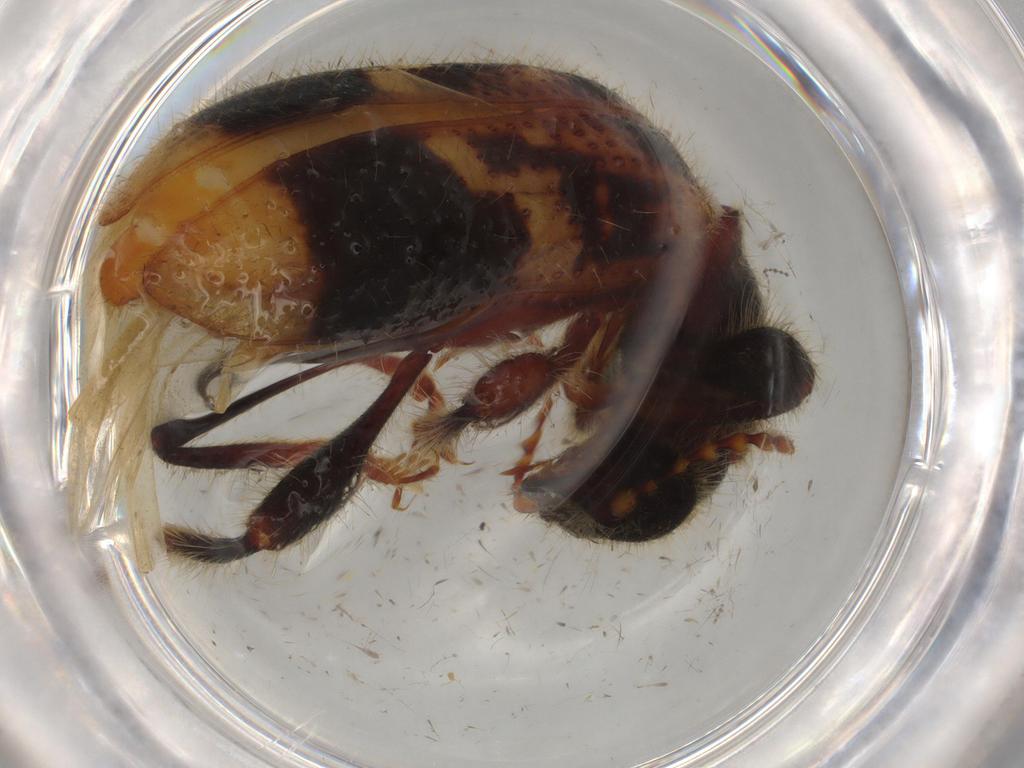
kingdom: Animalia
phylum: Arthropoda
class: Insecta
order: Coleoptera
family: Cleridae
